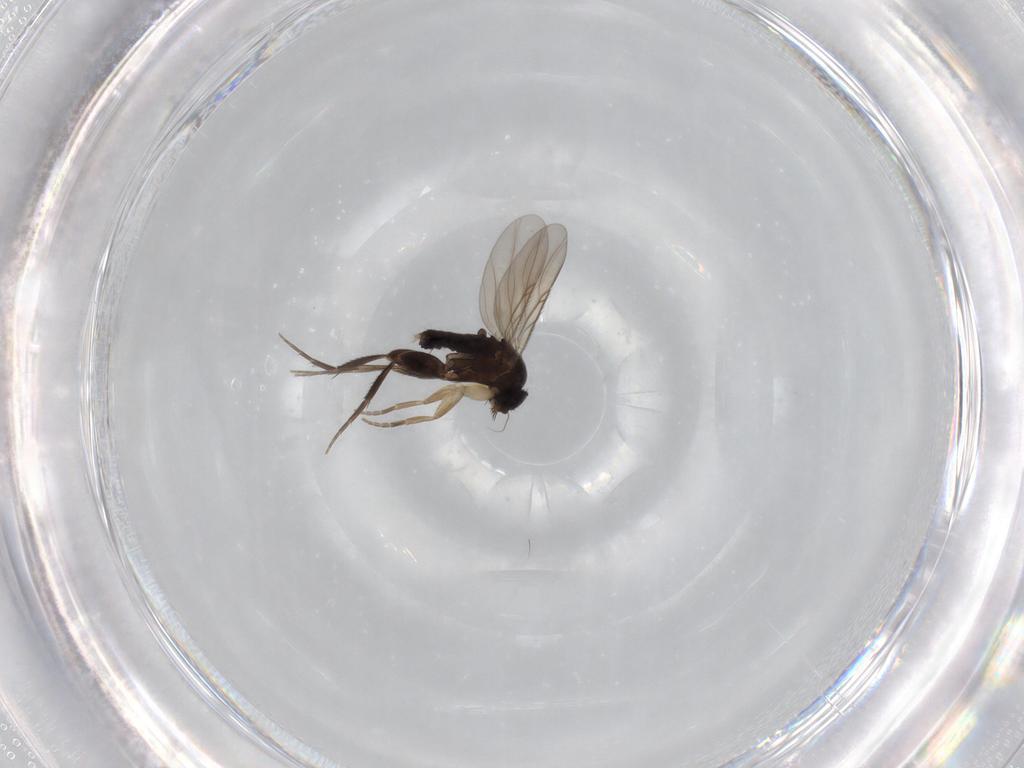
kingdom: Animalia
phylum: Arthropoda
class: Insecta
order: Diptera
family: Phoridae
